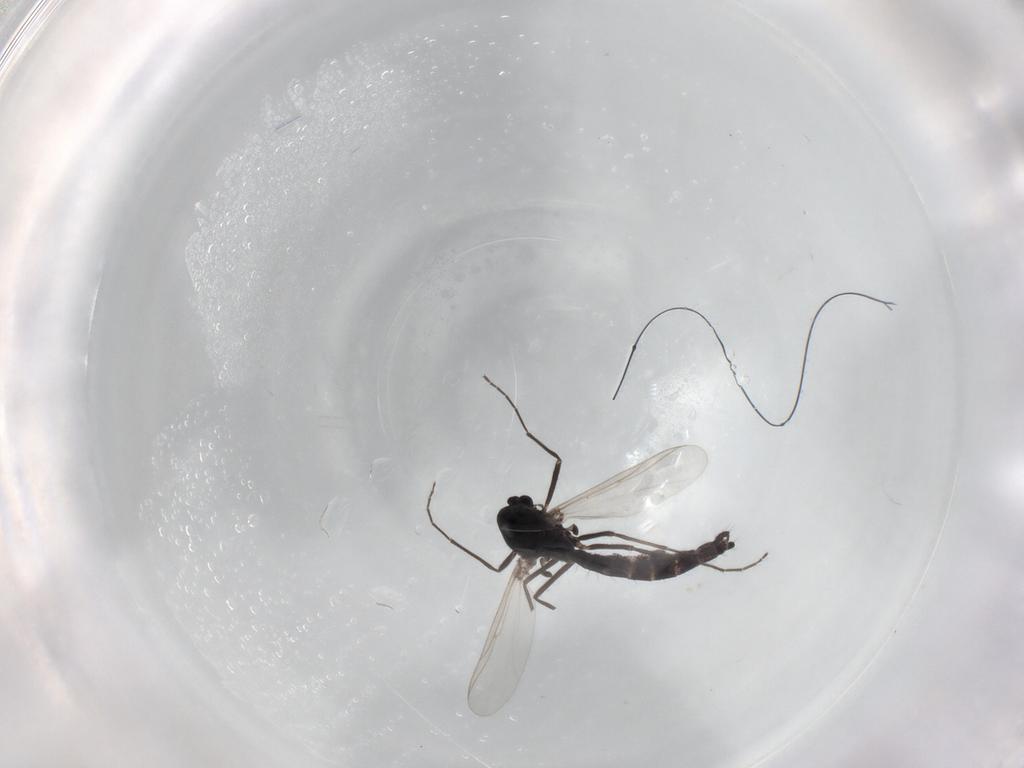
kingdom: Animalia
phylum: Arthropoda
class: Insecta
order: Diptera
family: Chironomidae
